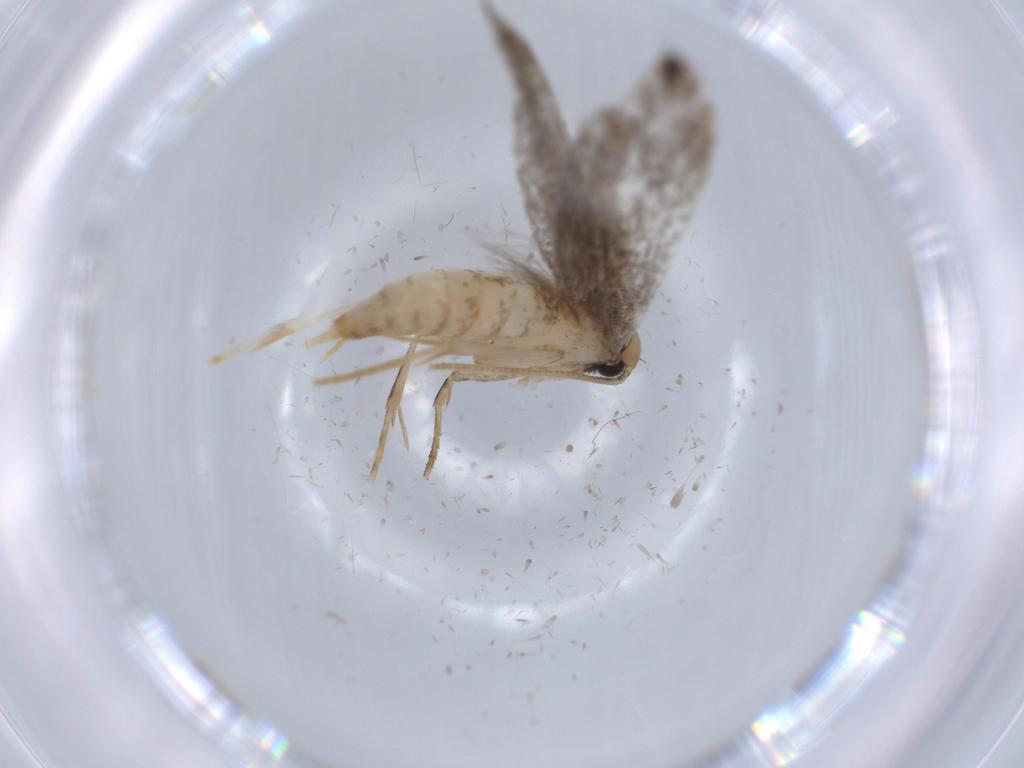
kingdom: Animalia
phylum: Arthropoda
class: Insecta
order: Lepidoptera
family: Tineidae
